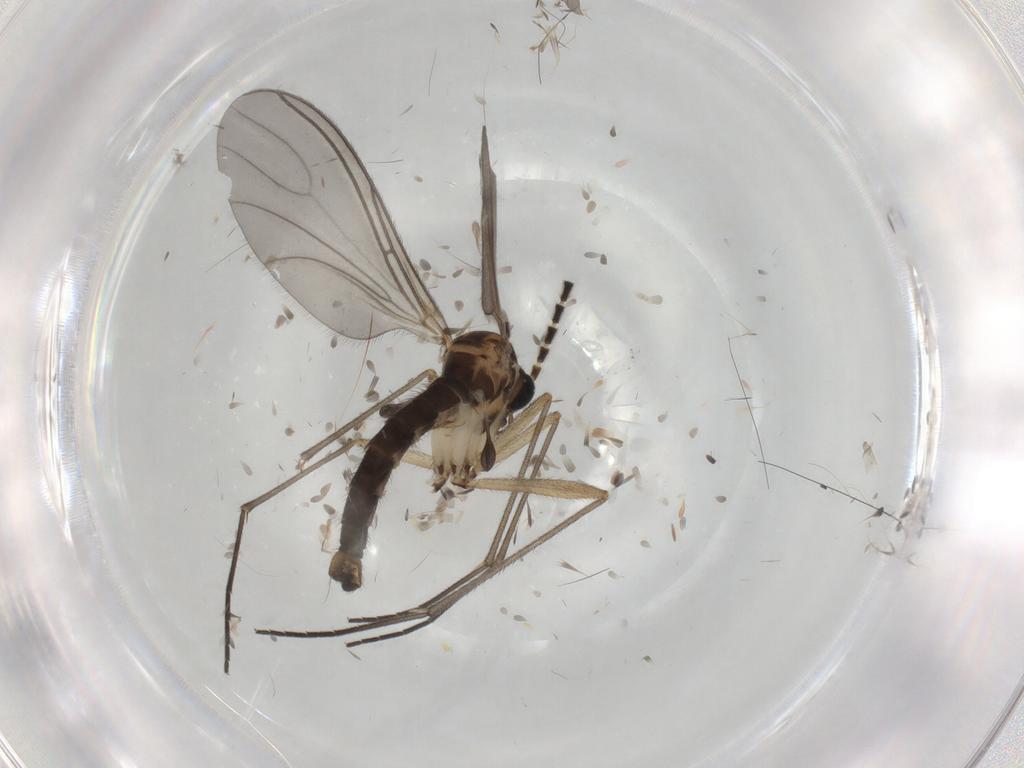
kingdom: Animalia
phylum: Arthropoda
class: Insecta
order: Diptera
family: Sciaridae
